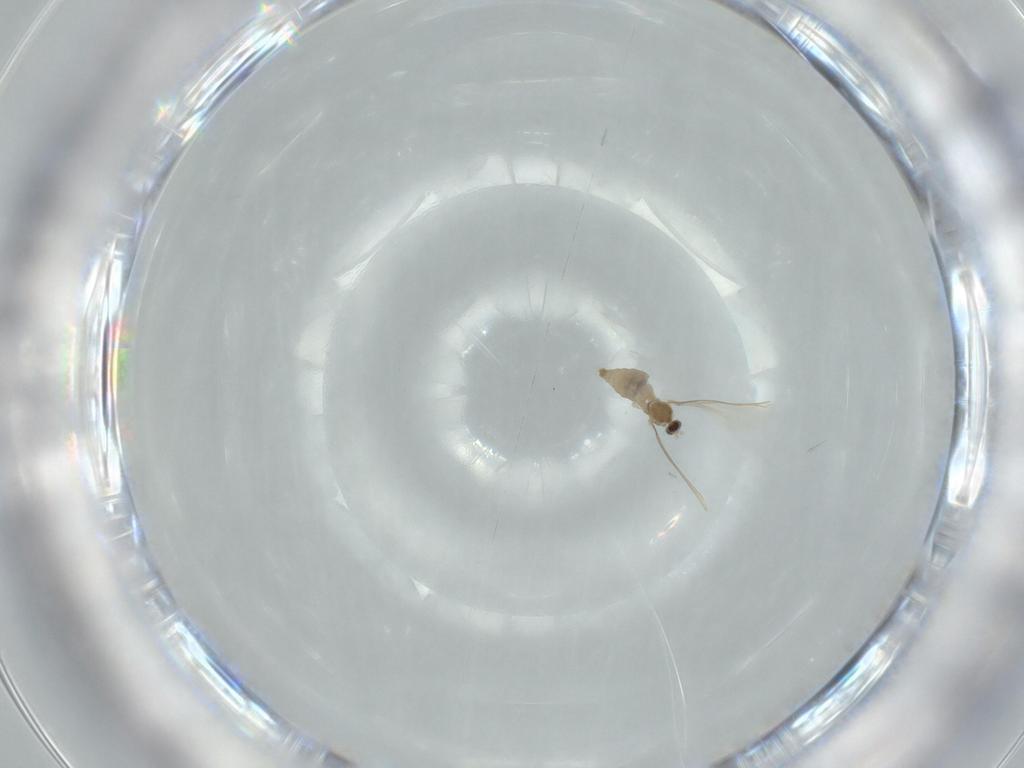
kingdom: Animalia
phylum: Arthropoda
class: Insecta
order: Diptera
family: Cecidomyiidae
